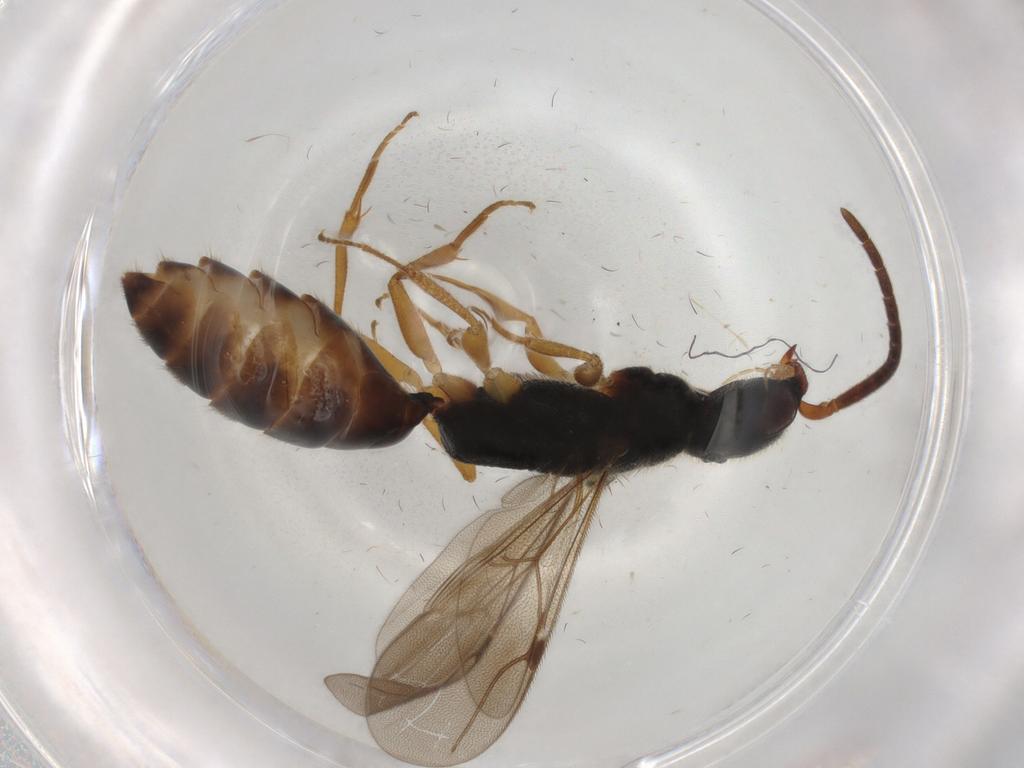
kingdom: Animalia
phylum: Arthropoda
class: Insecta
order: Hymenoptera
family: Bethylidae
